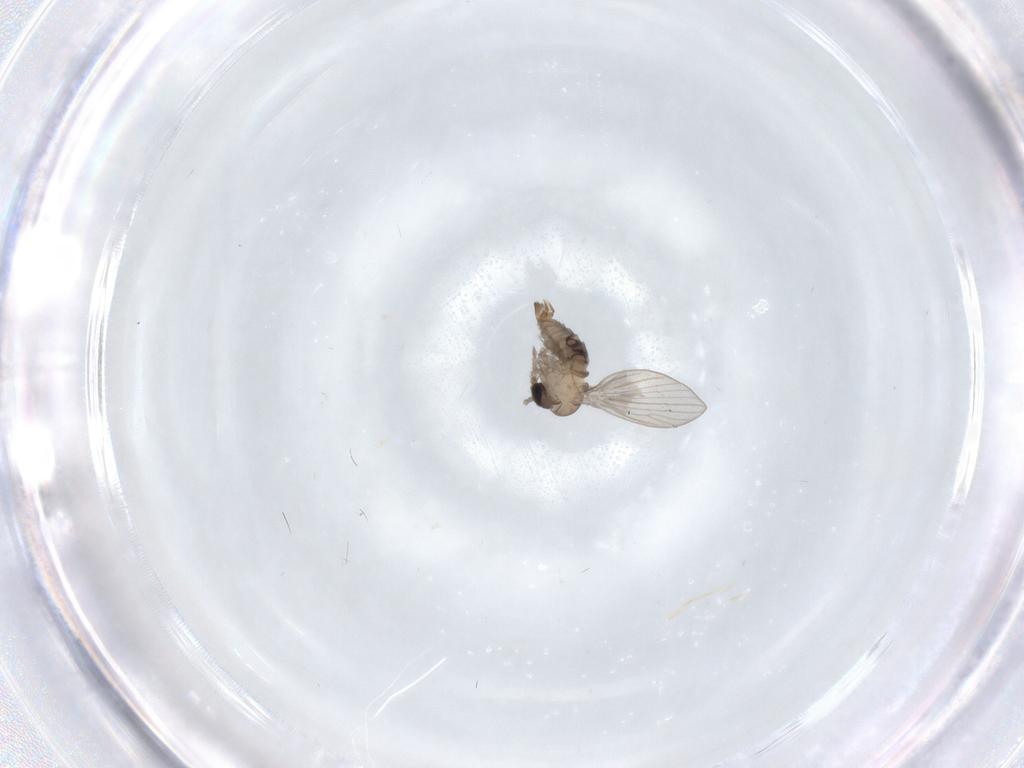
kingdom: Animalia
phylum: Arthropoda
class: Insecta
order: Diptera
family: Psychodidae
